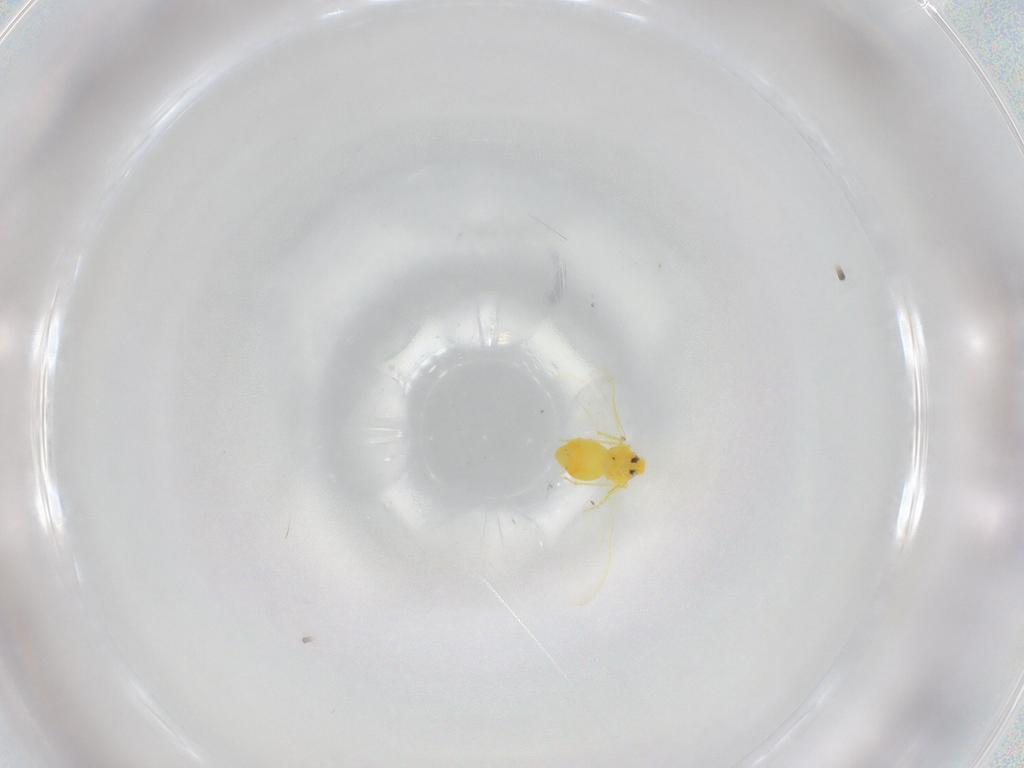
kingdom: Animalia
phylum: Arthropoda
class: Insecta
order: Hemiptera
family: Aleyrodidae
